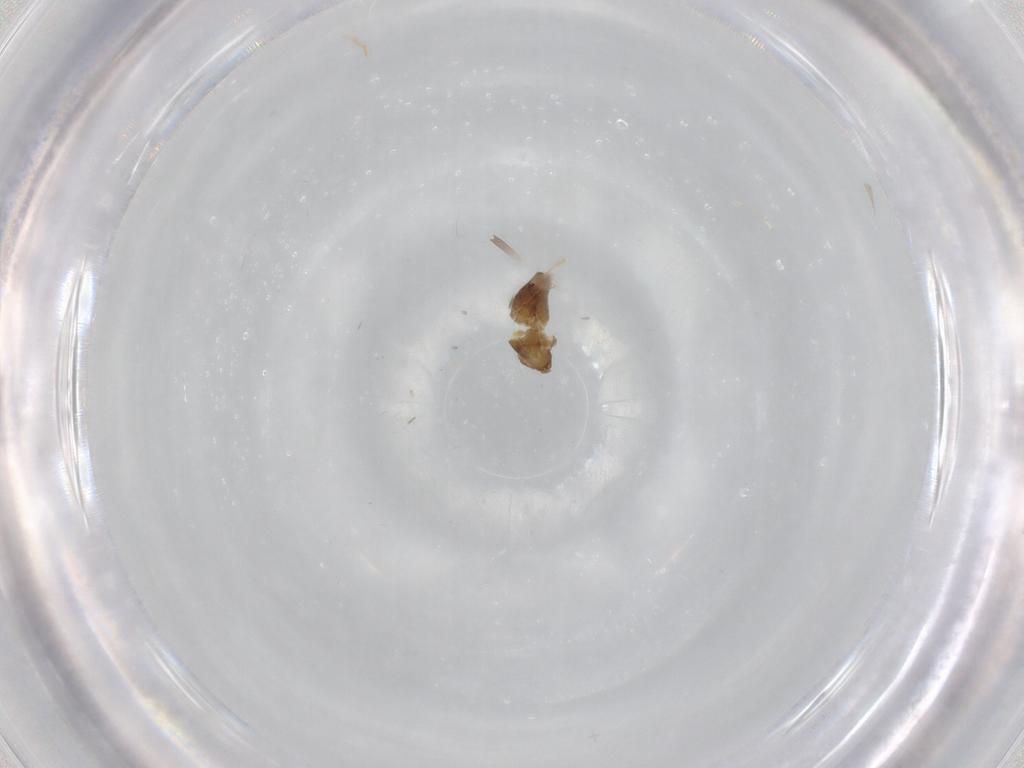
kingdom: Animalia
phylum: Arthropoda
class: Insecta
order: Diptera
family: Chironomidae
